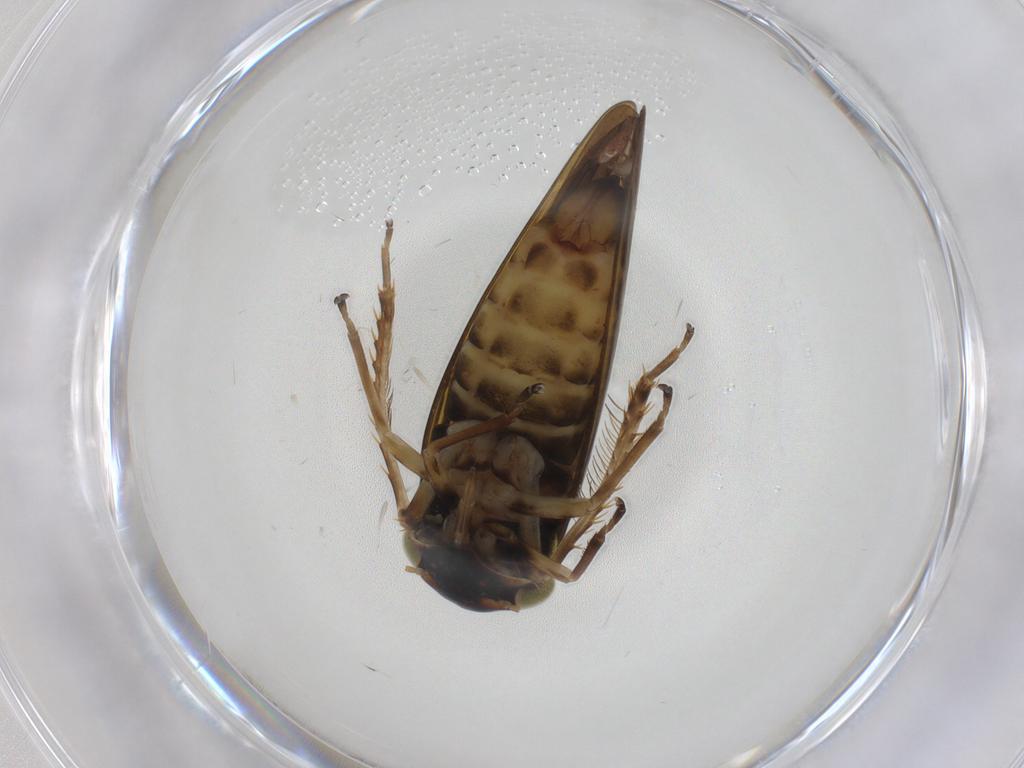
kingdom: Animalia
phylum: Arthropoda
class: Insecta
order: Hemiptera
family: Cicadellidae
